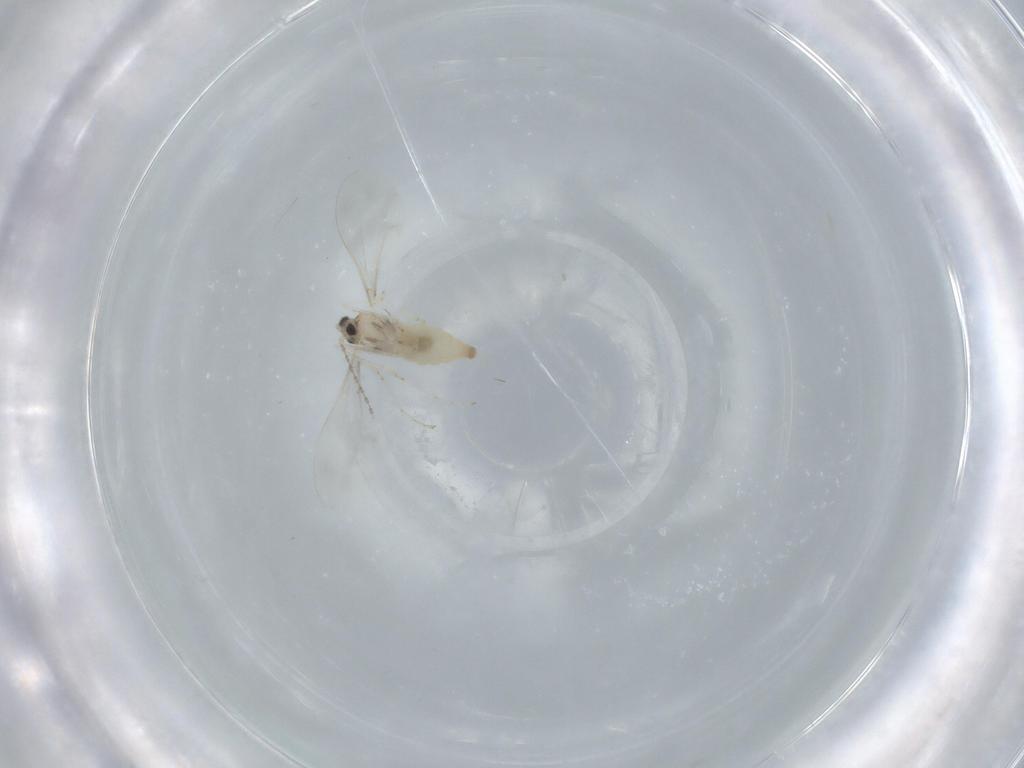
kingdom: Animalia
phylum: Arthropoda
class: Insecta
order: Diptera
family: Cecidomyiidae
